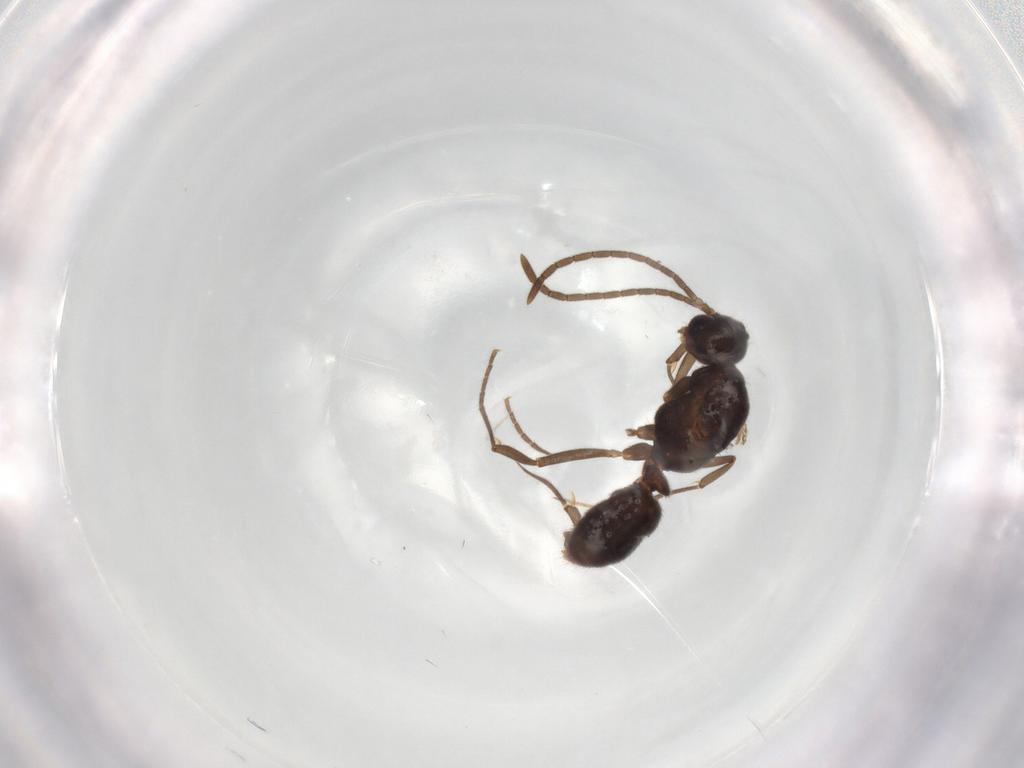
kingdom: Animalia
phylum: Arthropoda
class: Insecta
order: Hymenoptera
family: Formicidae
